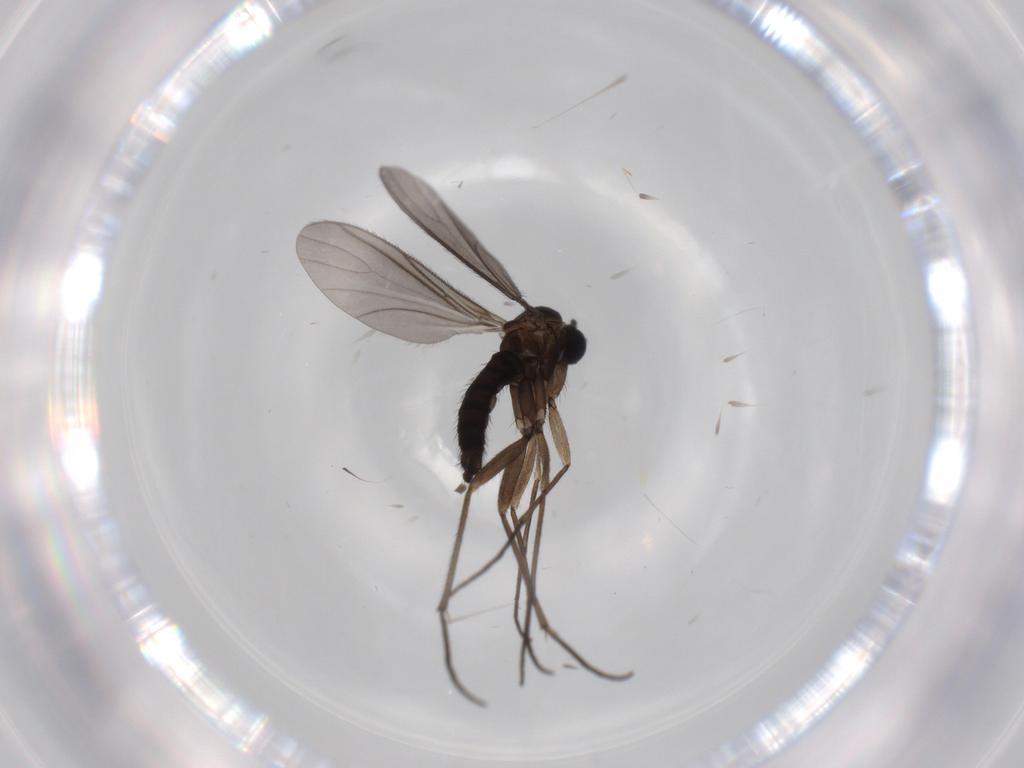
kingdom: Animalia
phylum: Arthropoda
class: Insecta
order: Diptera
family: Sciaridae
